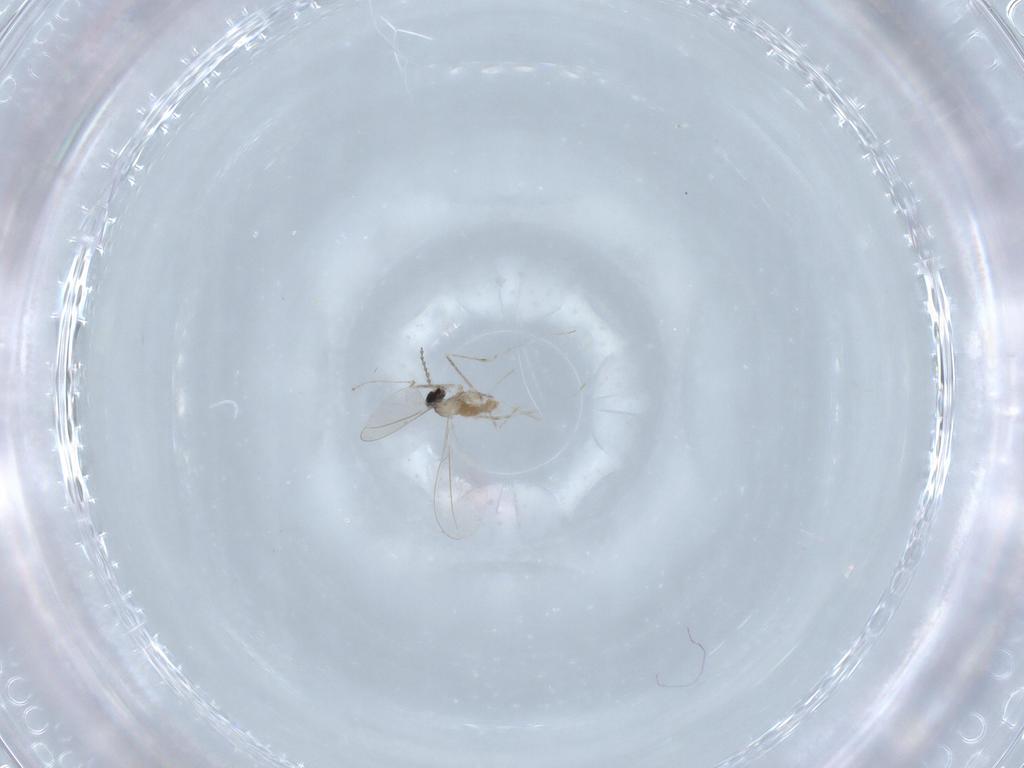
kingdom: Animalia
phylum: Arthropoda
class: Insecta
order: Diptera
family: Cecidomyiidae
